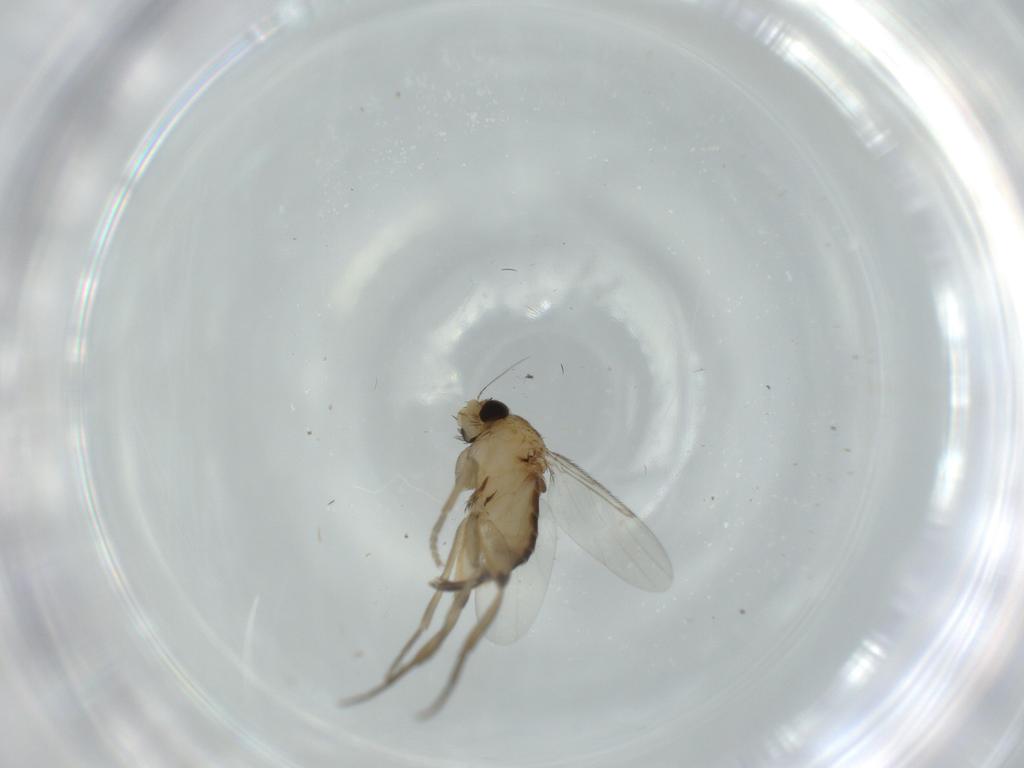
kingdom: Animalia
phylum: Arthropoda
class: Insecta
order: Diptera
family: Phoridae
